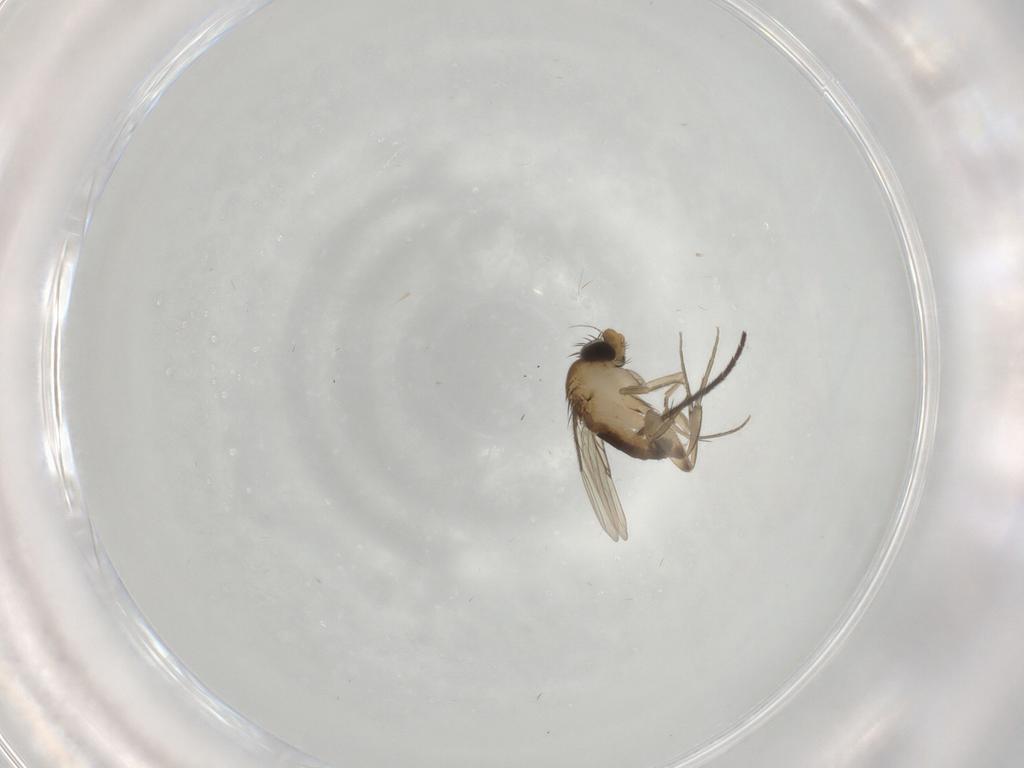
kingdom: Animalia
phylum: Arthropoda
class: Insecta
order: Diptera
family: Phoridae
